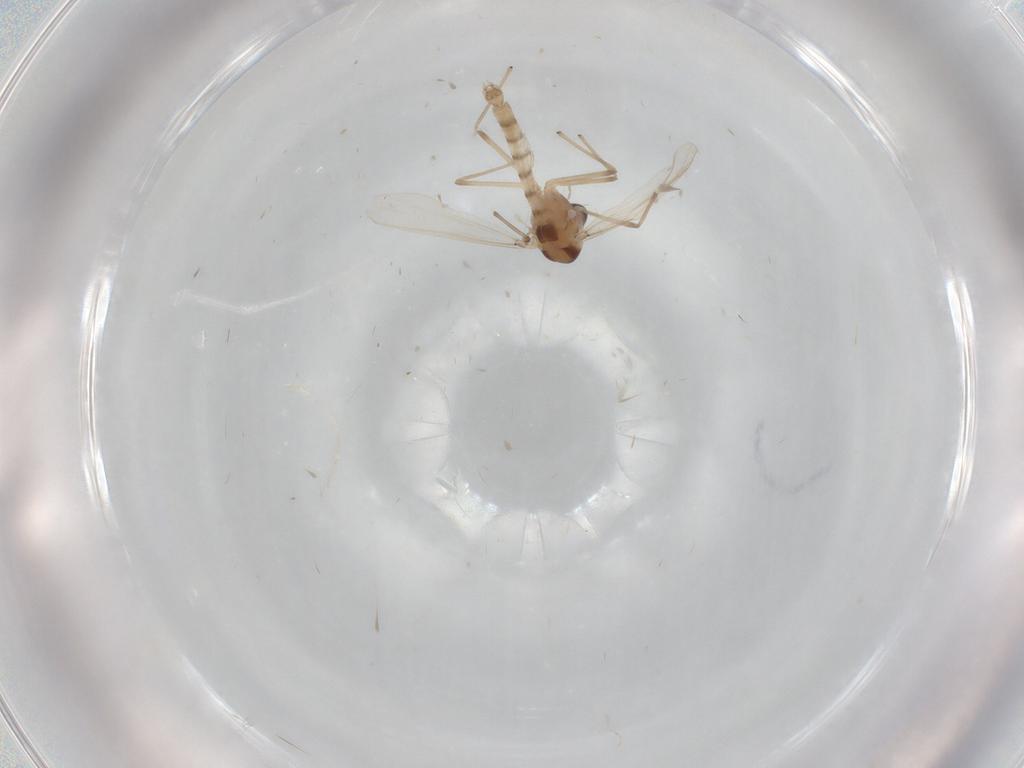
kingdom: Animalia
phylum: Arthropoda
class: Insecta
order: Diptera
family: Chironomidae
